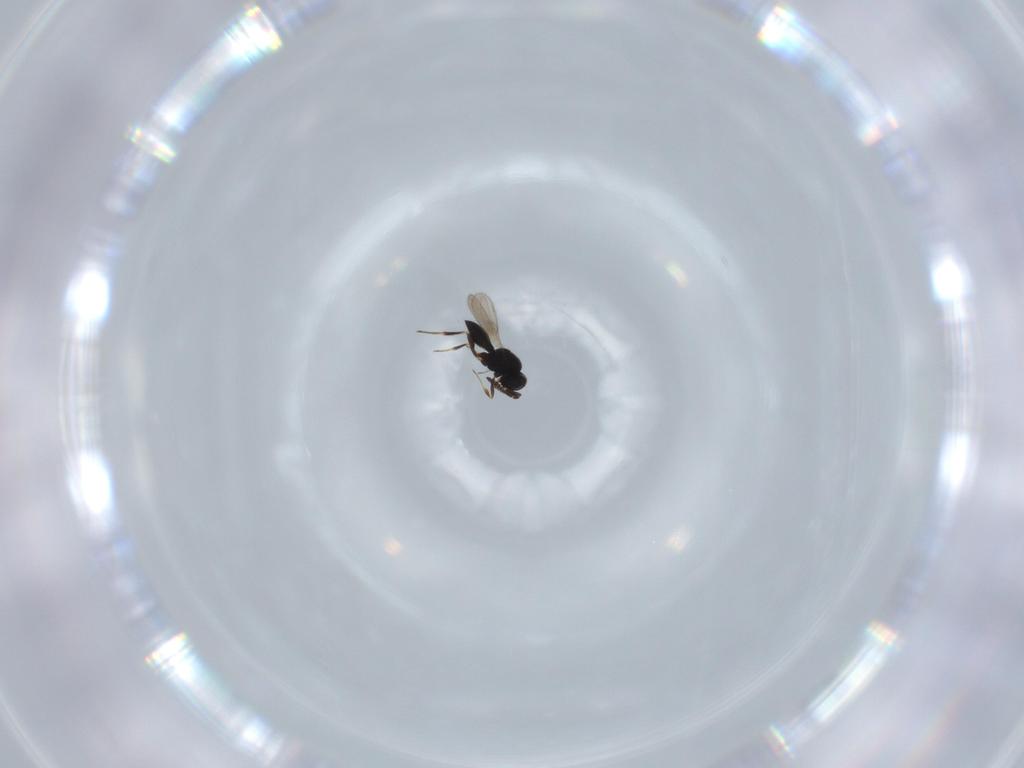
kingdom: Animalia
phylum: Arthropoda
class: Insecta
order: Hymenoptera
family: Scelionidae
